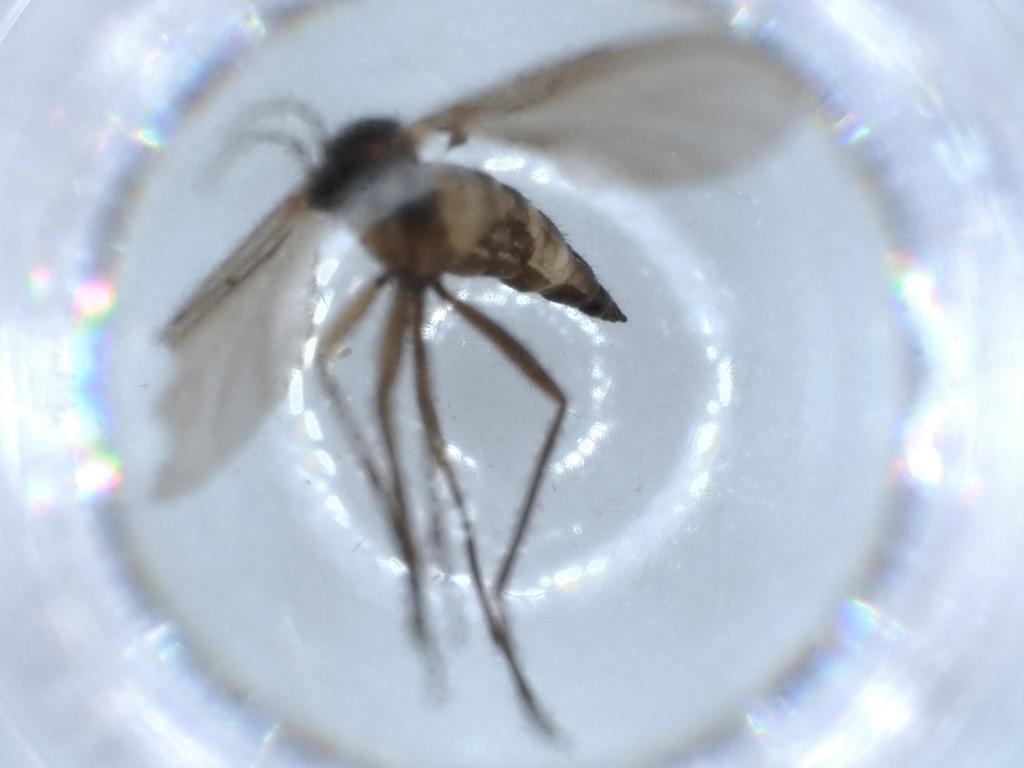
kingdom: Animalia
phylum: Arthropoda
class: Insecta
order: Diptera
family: Sciaridae
